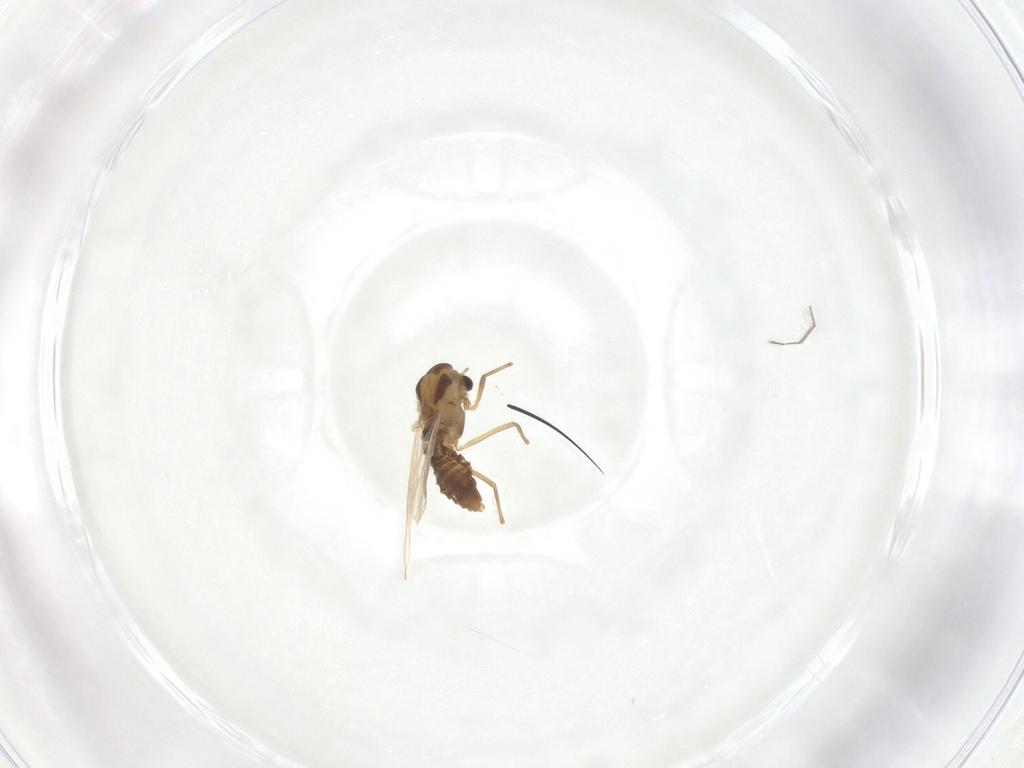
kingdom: Animalia
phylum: Arthropoda
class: Insecta
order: Diptera
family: Chironomidae
